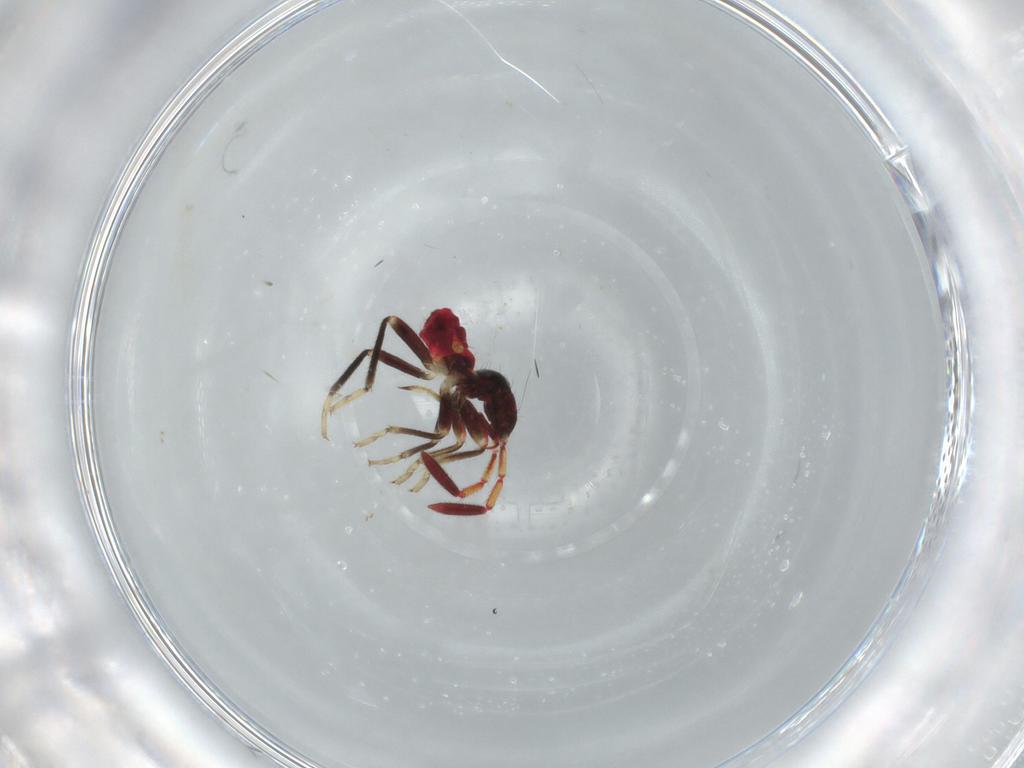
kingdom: Animalia
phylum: Arthropoda
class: Insecta
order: Hemiptera
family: Rhyparochromidae
